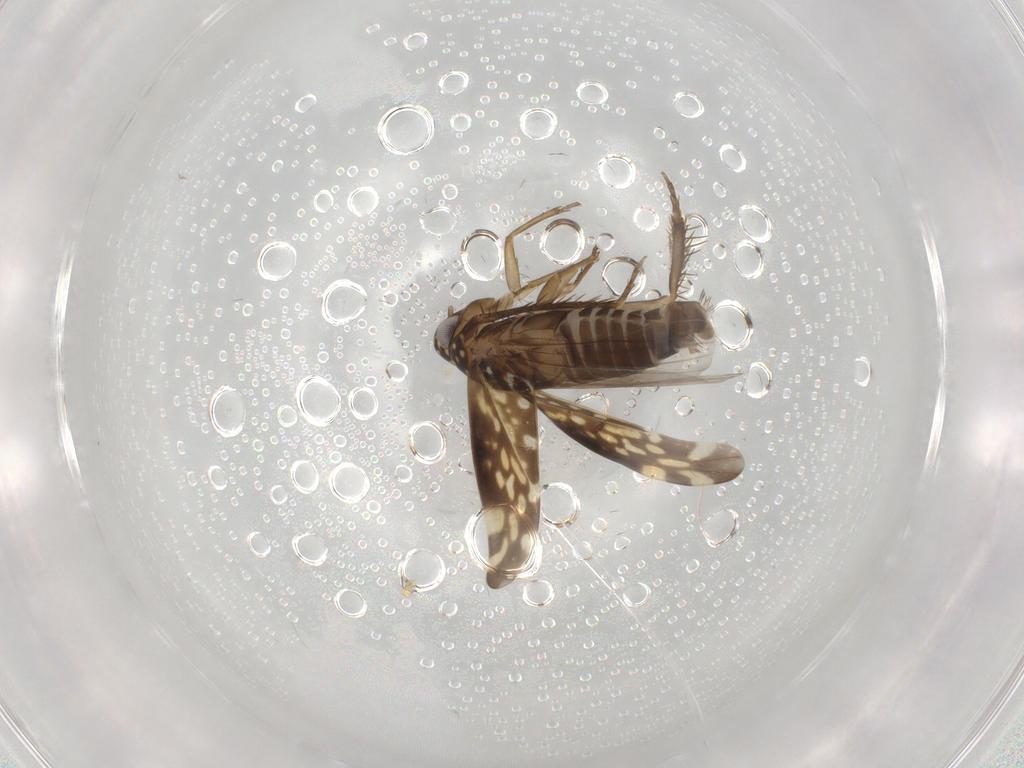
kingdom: Animalia
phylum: Arthropoda
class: Insecta
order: Hemiptera
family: Cicadellidae
